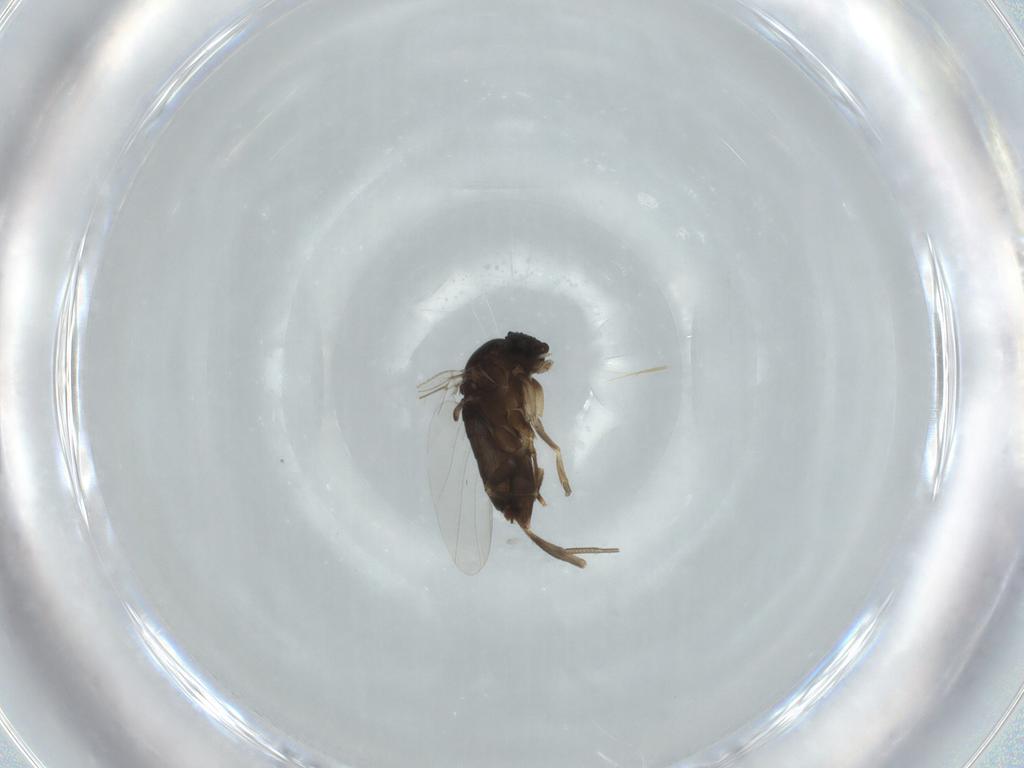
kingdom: Animalia
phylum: Arthropoda
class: Insecta
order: Diptera
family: Phoridae
